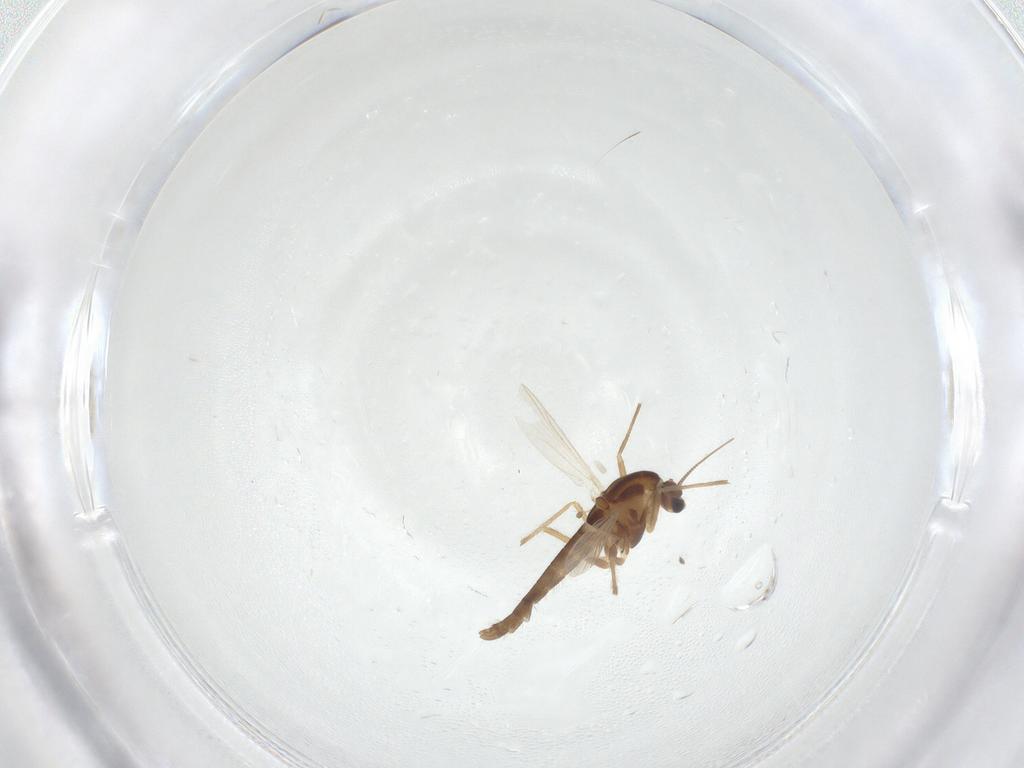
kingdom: Animalia
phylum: Arthropoda
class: Insecta
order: Diptera
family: Chironomidae
